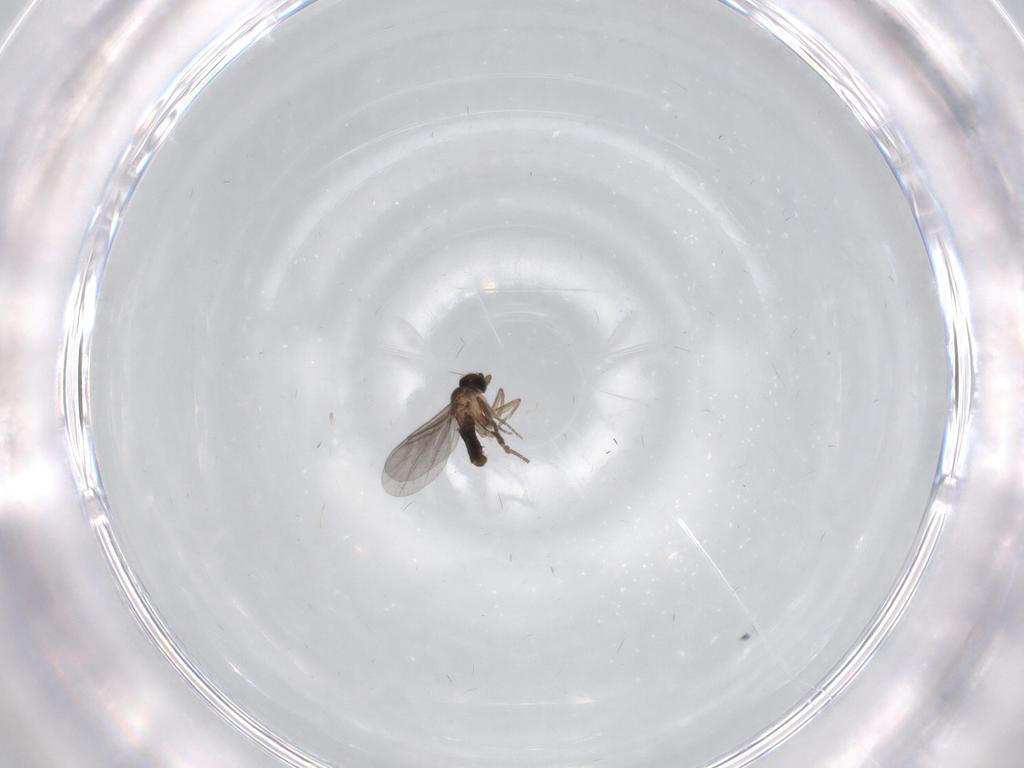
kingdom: Animalia
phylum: Arthropoda
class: Insecta
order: Diptera
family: Chironomidae
